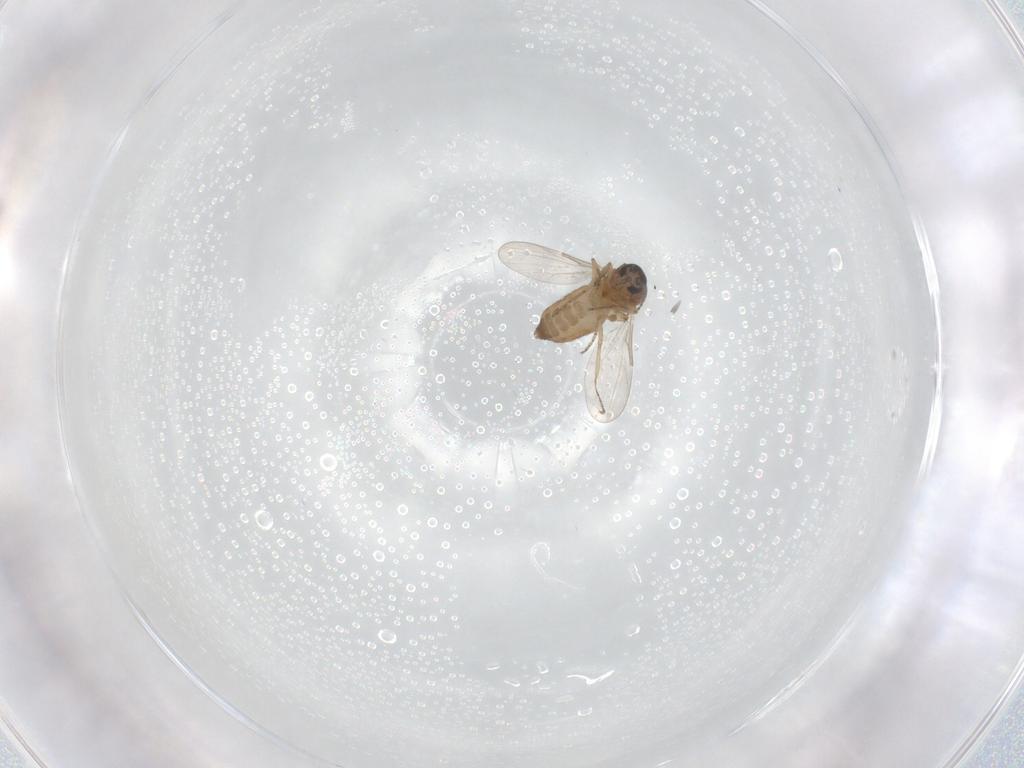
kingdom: Animalia
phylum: Arthropoda
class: Insecta
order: Diptera
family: Ceratopogonidae
